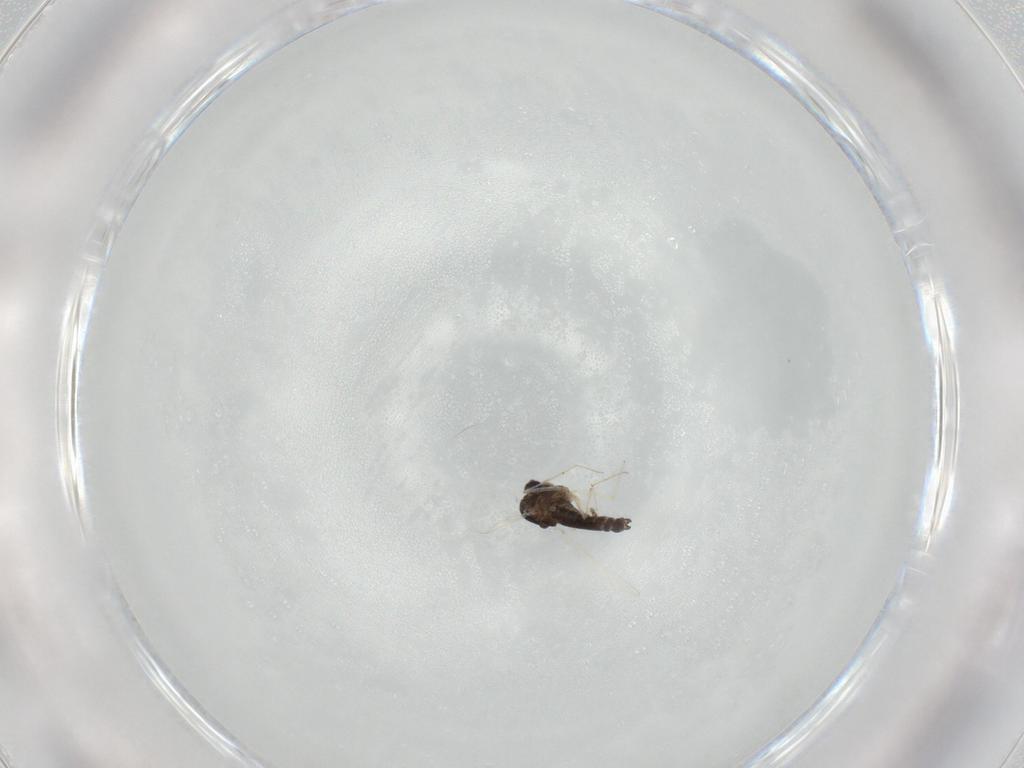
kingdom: Animalia
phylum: Arthropoda
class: Insecta
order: Diptera
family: Chironomidae
